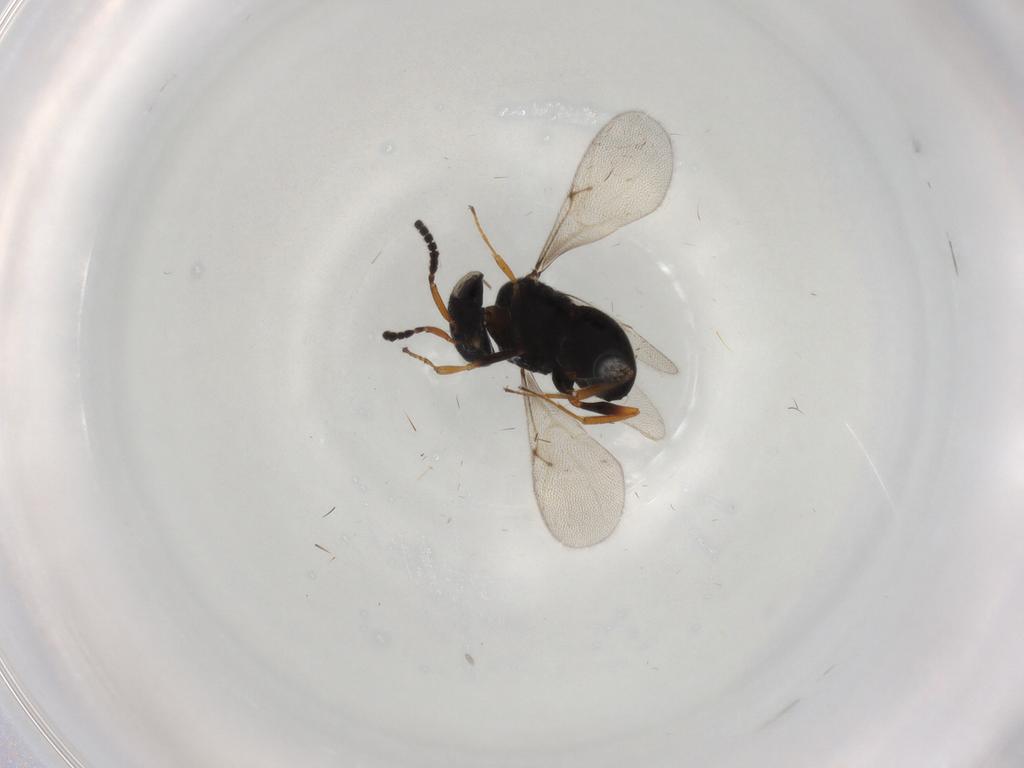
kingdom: Animalia
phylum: Arthropoda
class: Insecta
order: Hymenoptera
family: Scelionidae
